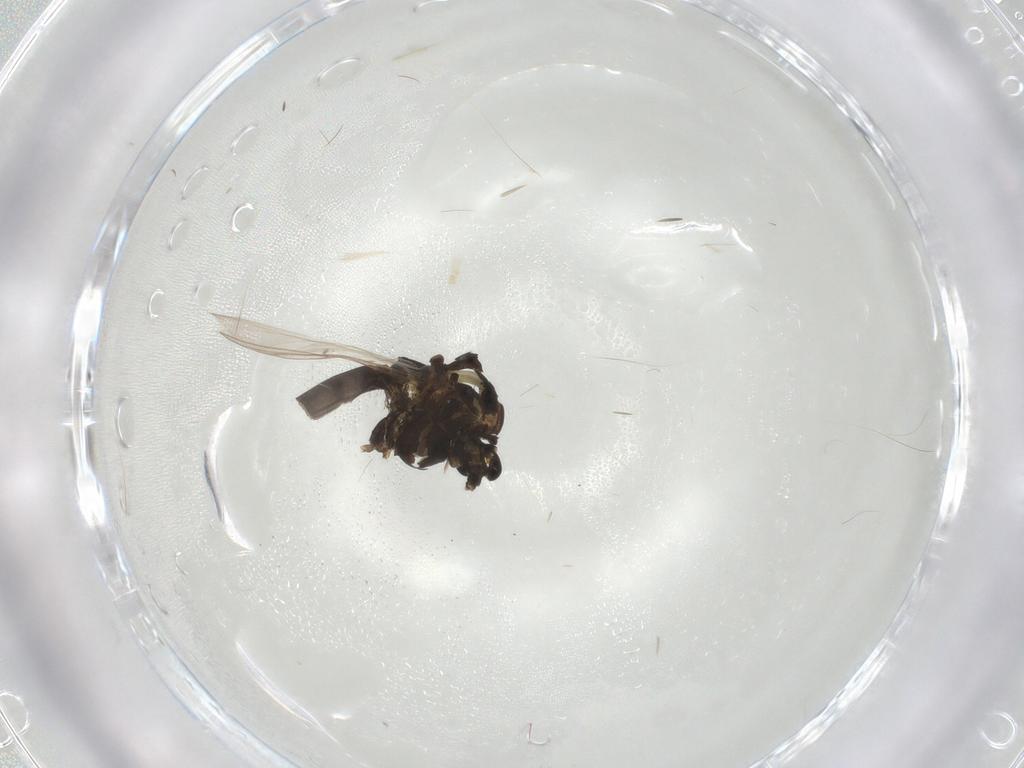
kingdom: Animalia
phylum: Arthropoda
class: Insecta
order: Diptera
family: Chironomidae
